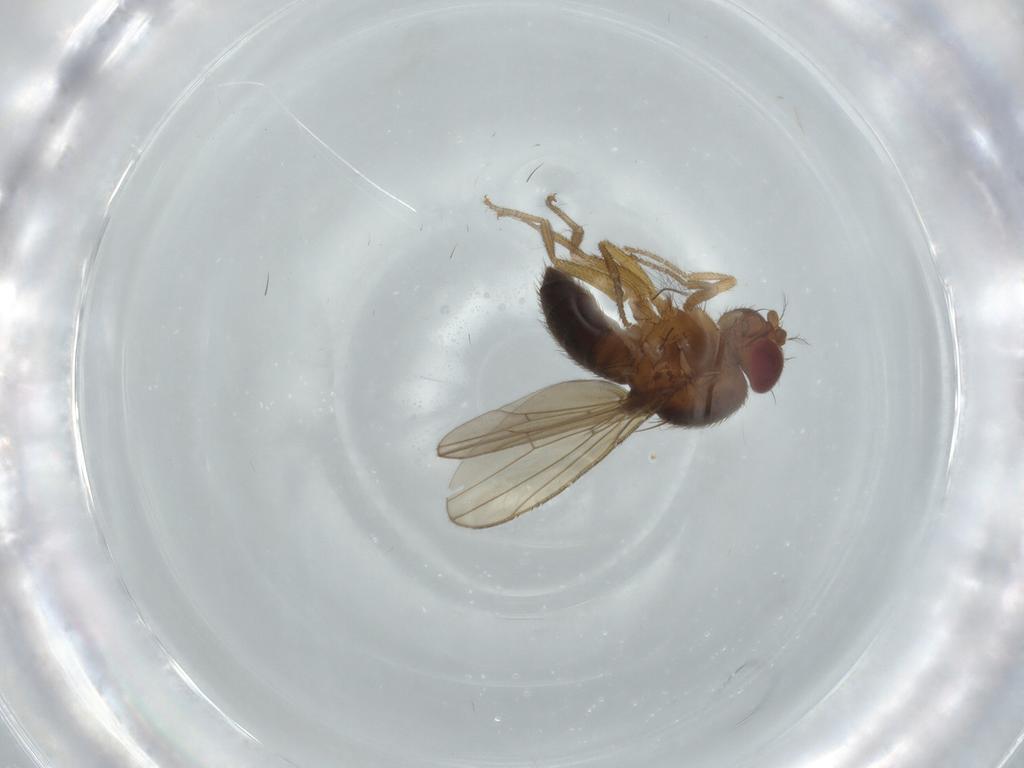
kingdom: Animalia
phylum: Arthropoda
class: Insecta
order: Diptera
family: Drosophilidae
